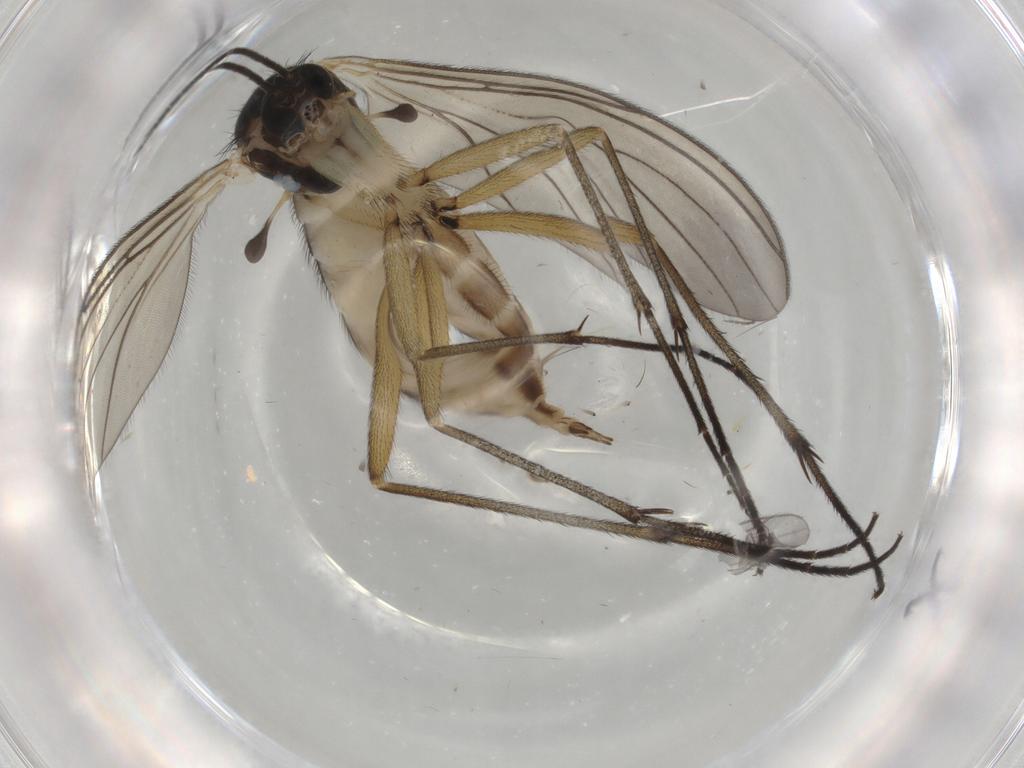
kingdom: Animalia
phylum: Arthropoda
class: Insecta
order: Diptera
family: Sciaridae
